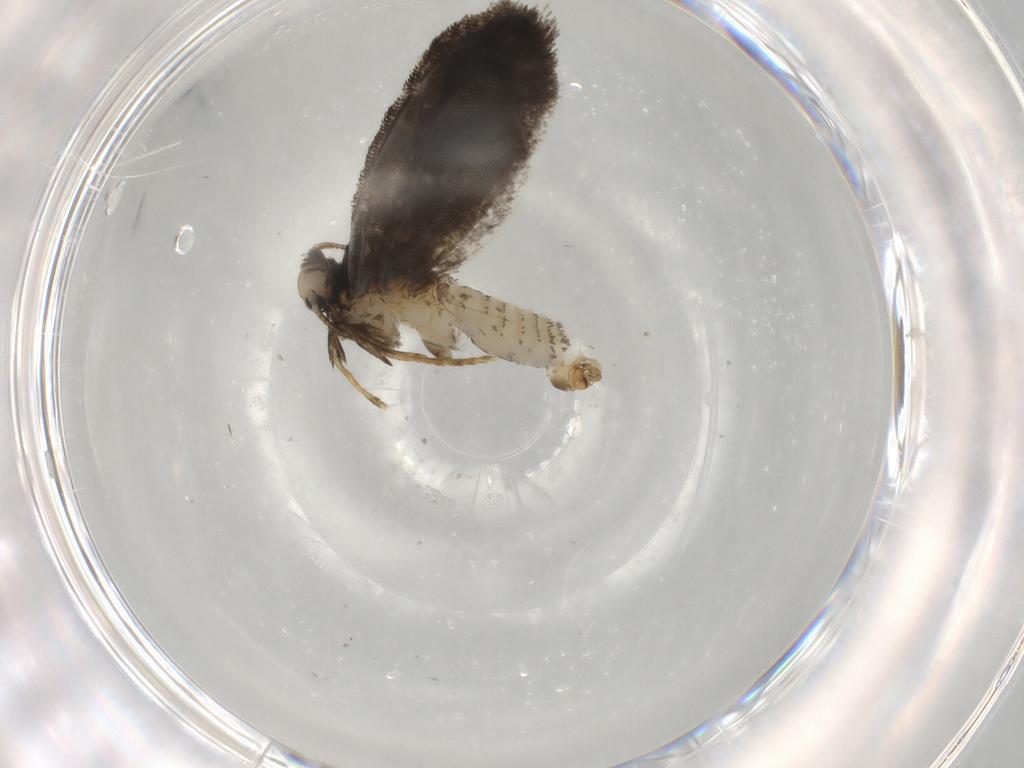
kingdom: Animalia
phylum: Arthropoda
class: Insecta
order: Lepidoptera
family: Psychidae
